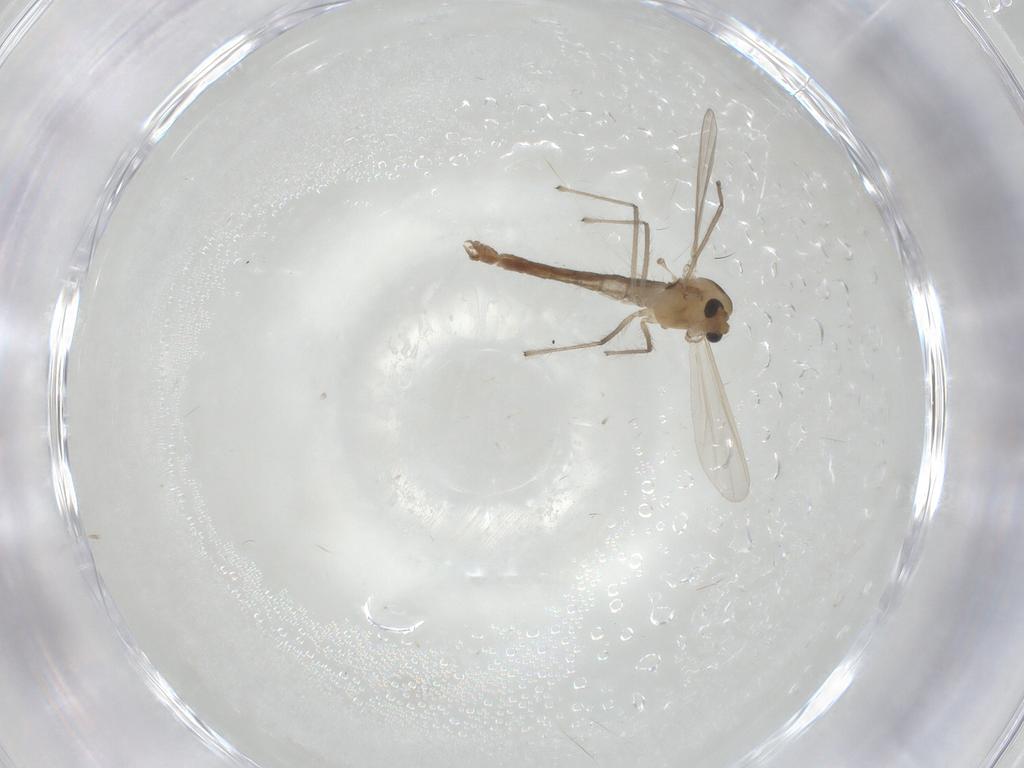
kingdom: Animalia
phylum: Arthropoda
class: Insecta
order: Diptera
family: Chironomidae
